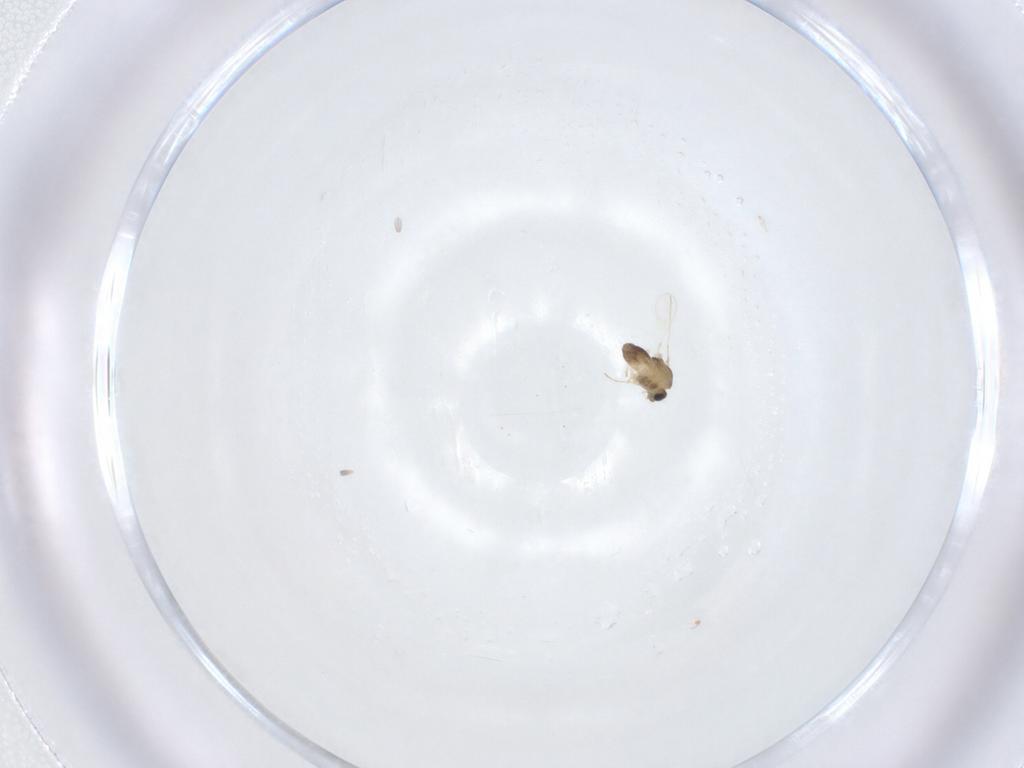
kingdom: Animalia
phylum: Arthropoda
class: Insecta
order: Diptera
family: Chironomidae
